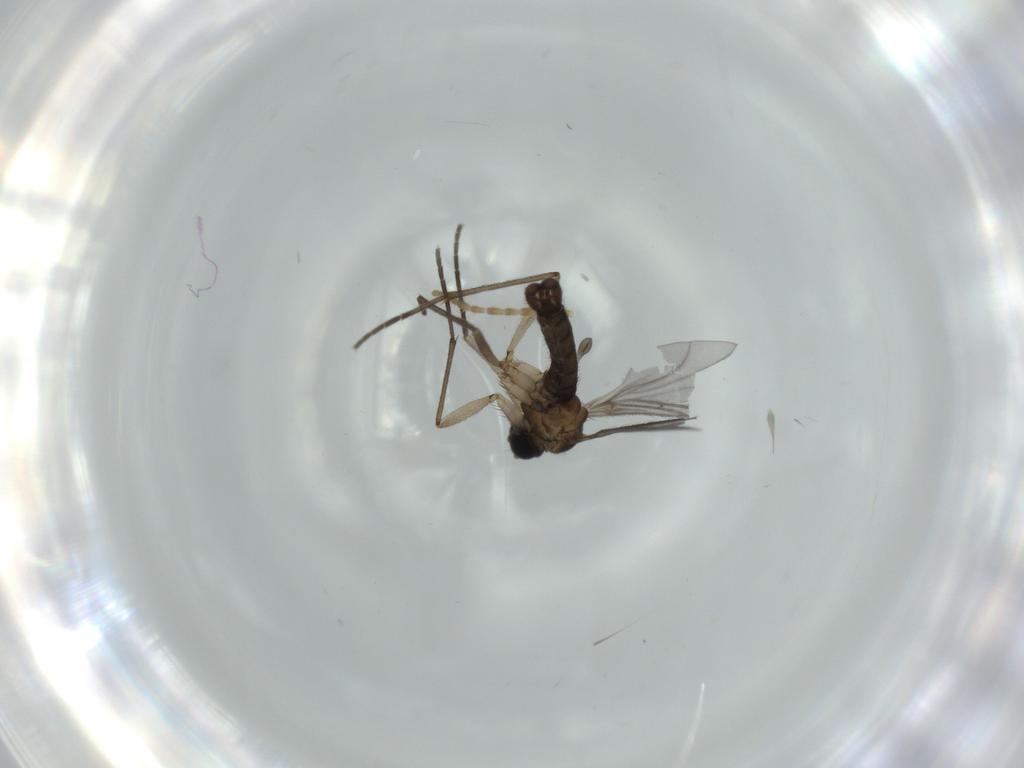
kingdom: Animalia
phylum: Arthropoda
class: Insecta
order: Diptera
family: Sciaridae
